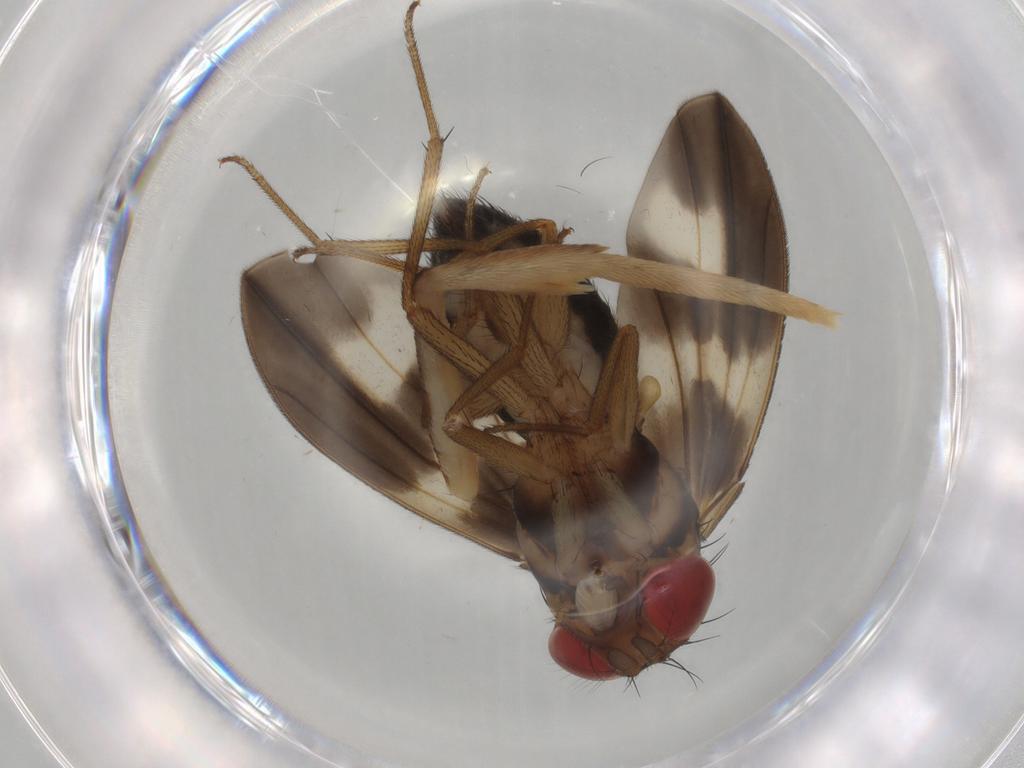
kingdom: Animalia
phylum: Arthropoda
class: Insecta
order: Diptera
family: Drosophilidae
